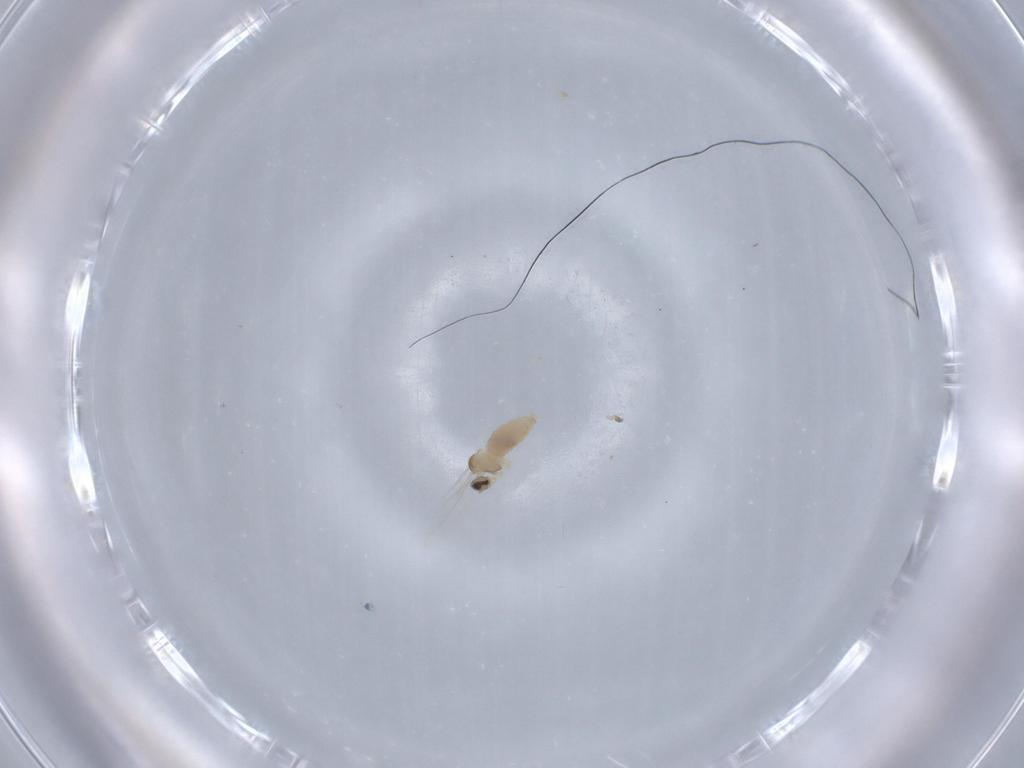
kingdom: Animalia
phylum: Arthropoda
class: Insecta
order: Diptera
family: Cecidomyiidae
